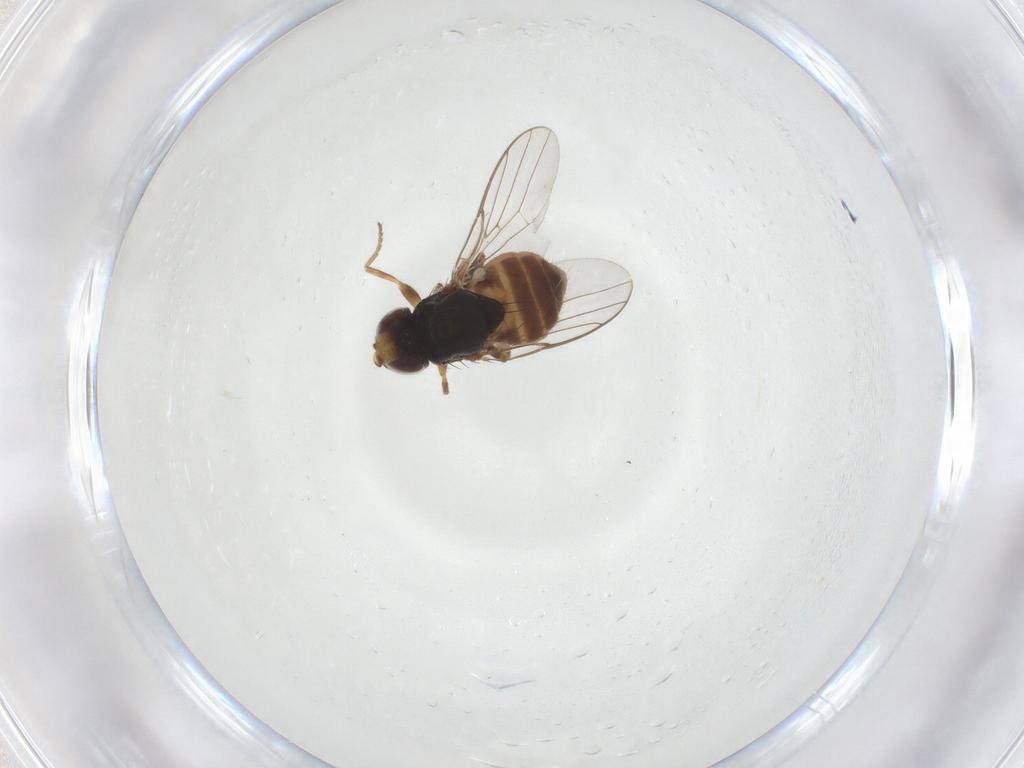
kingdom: Animalia
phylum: Arthropoda
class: Insecta
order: Diptera
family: Chloropidae
